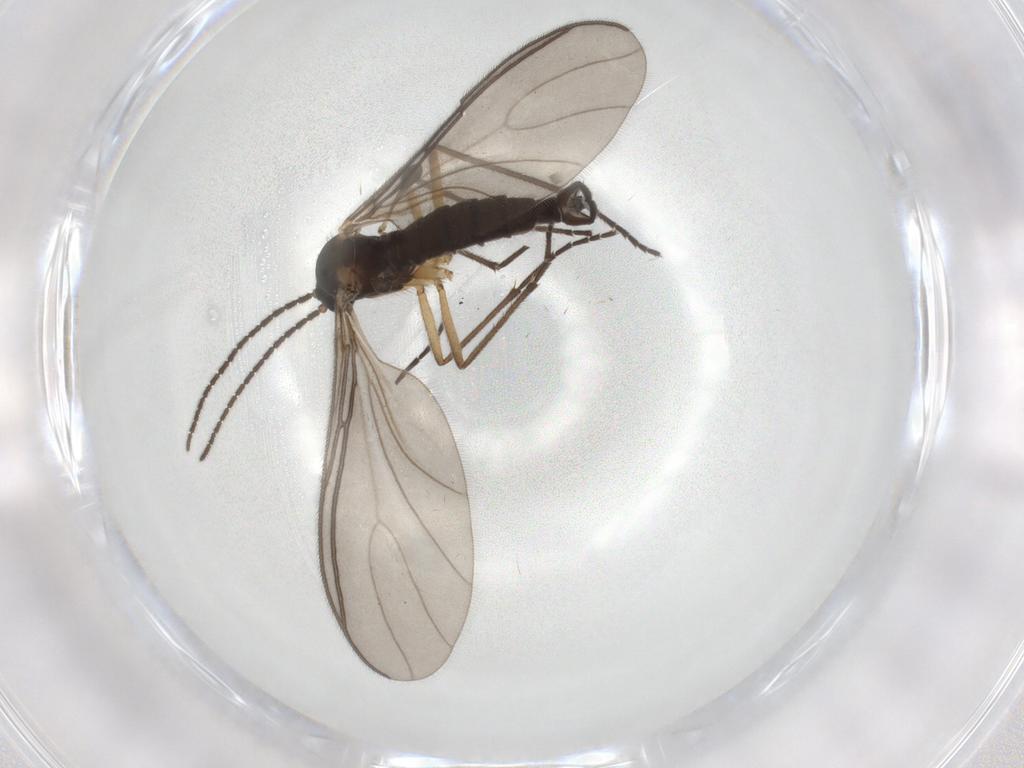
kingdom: Animalia
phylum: Arthropoda
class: Insecta
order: Diptera
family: Sciaridae
